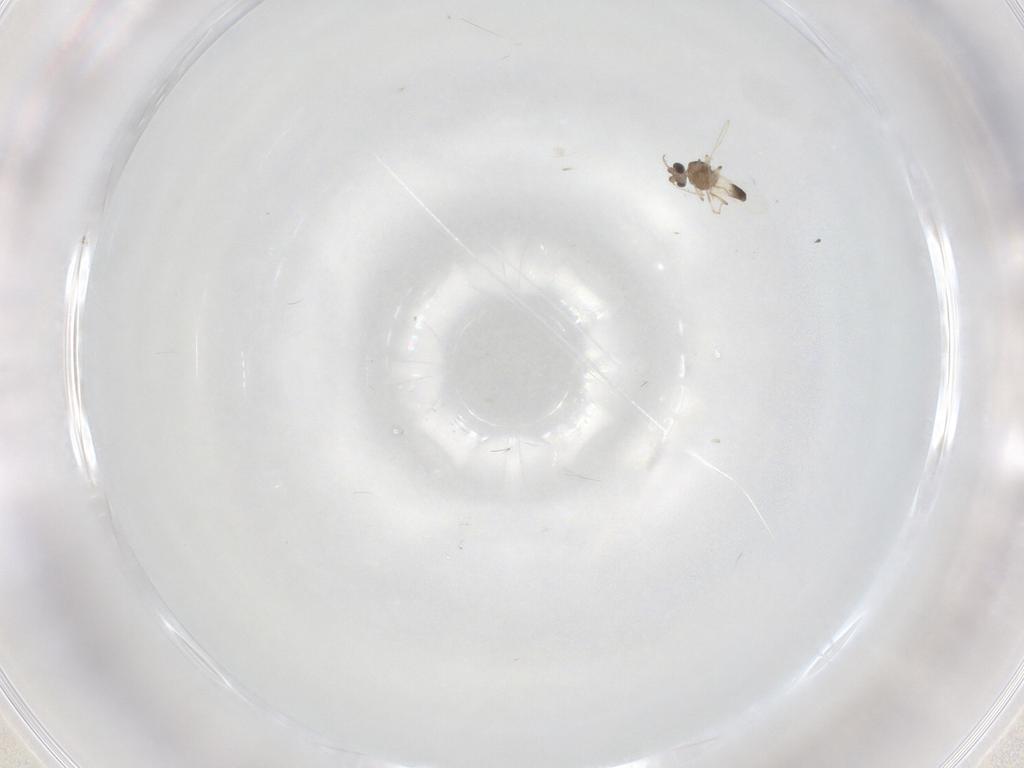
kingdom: Animalia
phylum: Arthropoda
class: Insecta
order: Diptera
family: Ceratopogonidae
